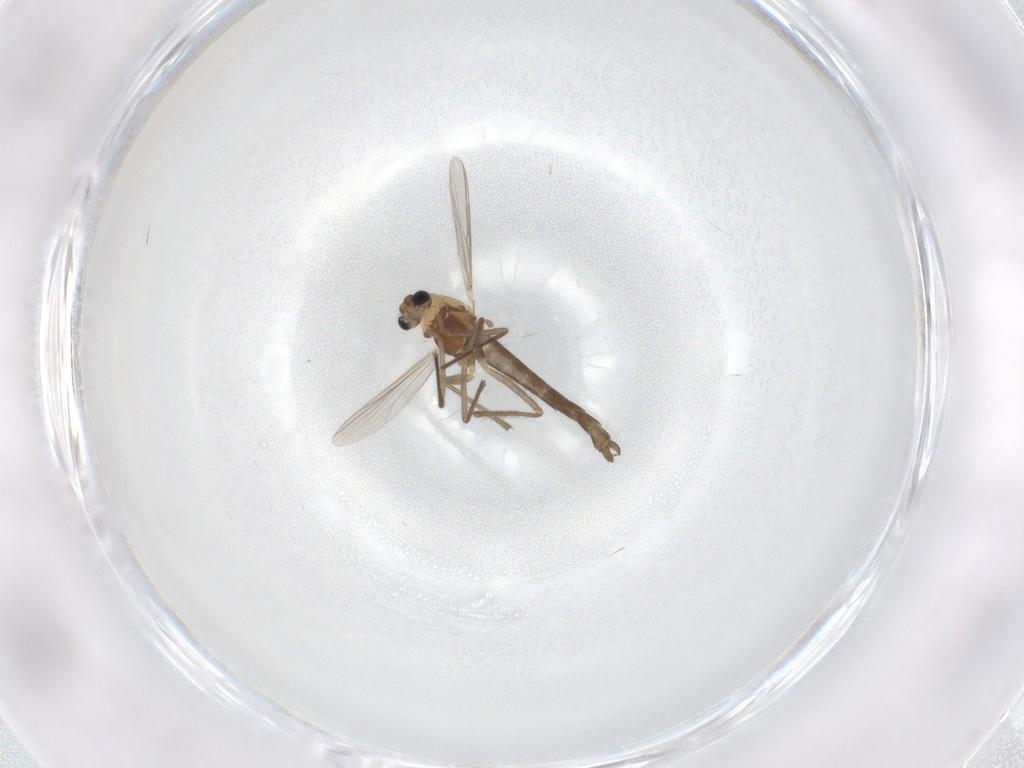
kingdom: Animalia
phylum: Arthropoda
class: Insecta
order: Diptera
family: Chironomidae
